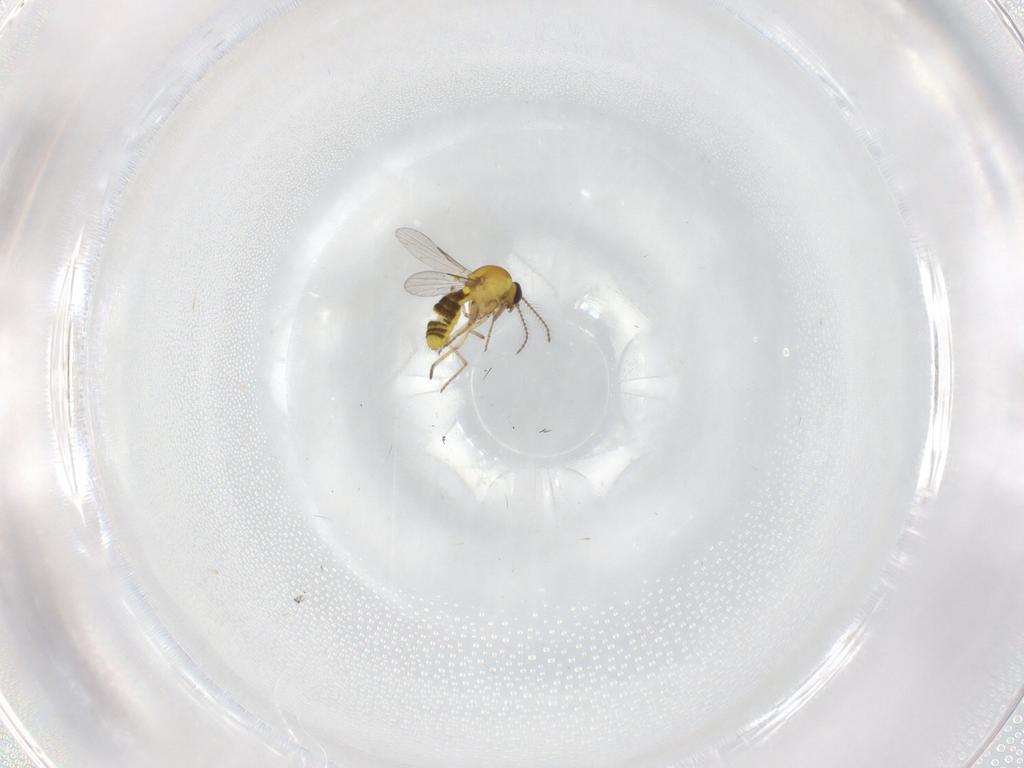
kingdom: Animalia
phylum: Arthropoda
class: Insecta
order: Diptera
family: Ceratopogonidae
